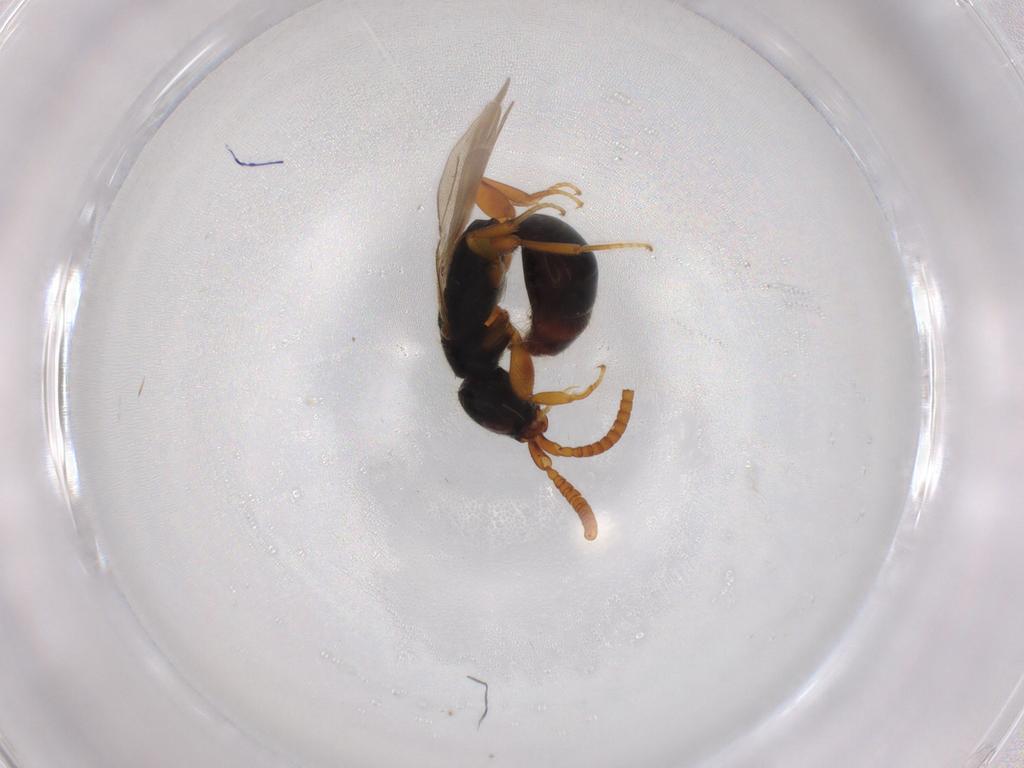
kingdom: Animalia
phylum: Arthropoda
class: Insecta
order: Hymenoptera
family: Bethylidae
